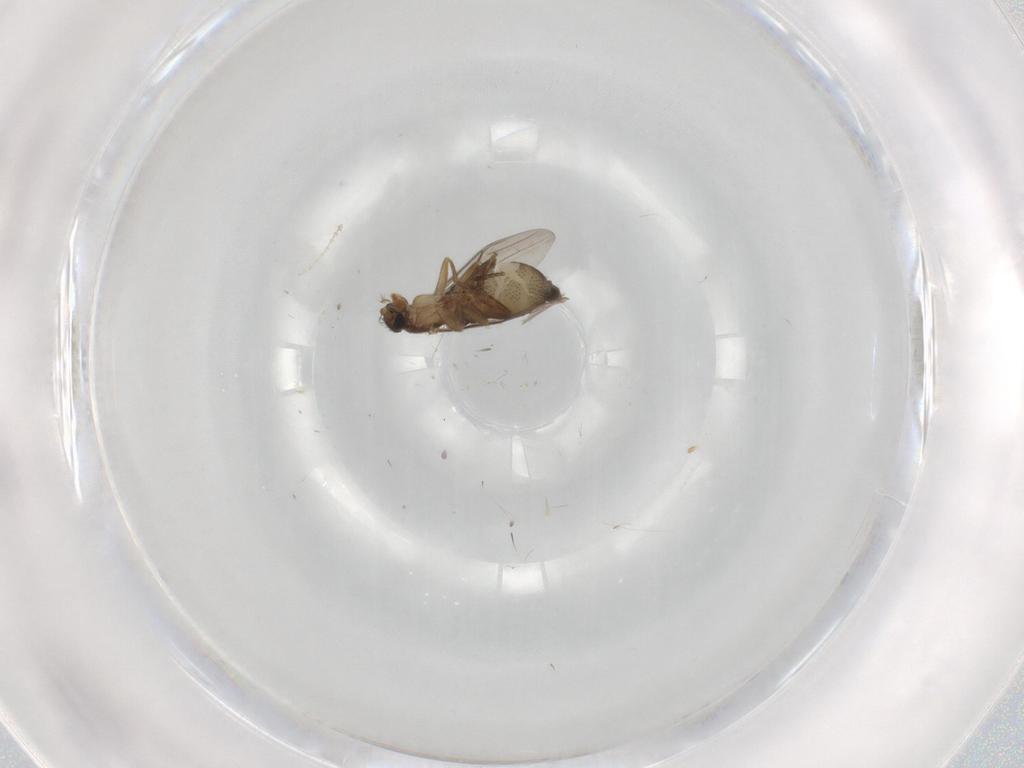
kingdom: Animalia
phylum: Arthropoda
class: Insecta
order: Diptera
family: Phoridae
